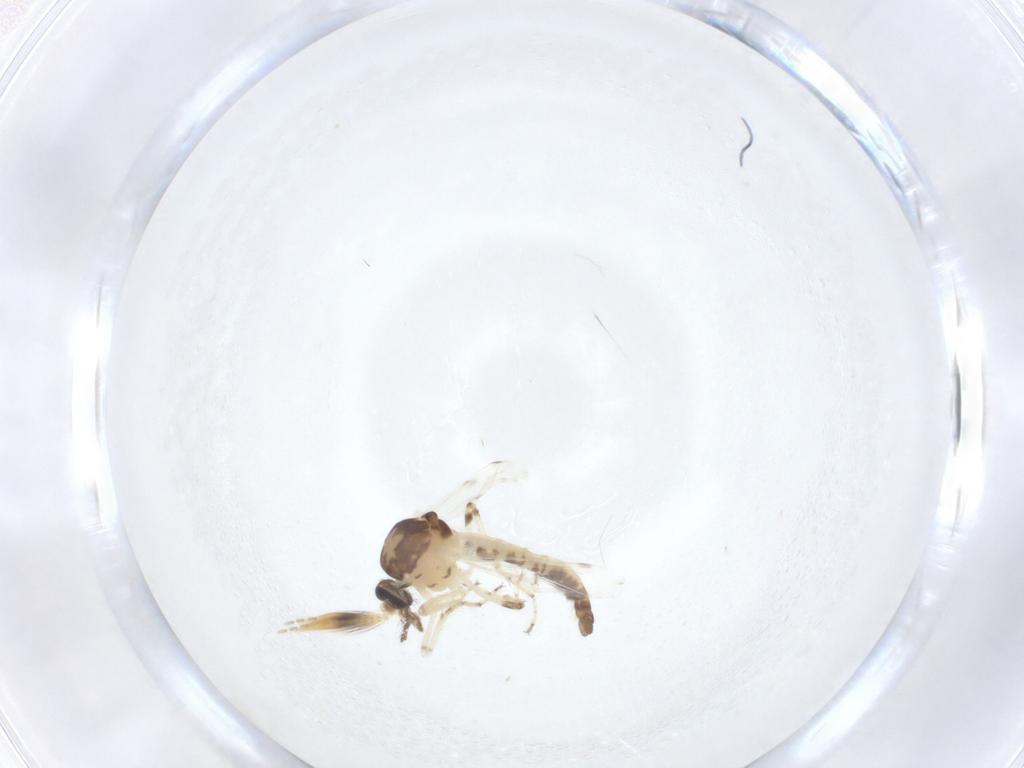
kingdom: Animalia
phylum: Arthropoda
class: Insecta
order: Diptera
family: Ceratopogonidae
